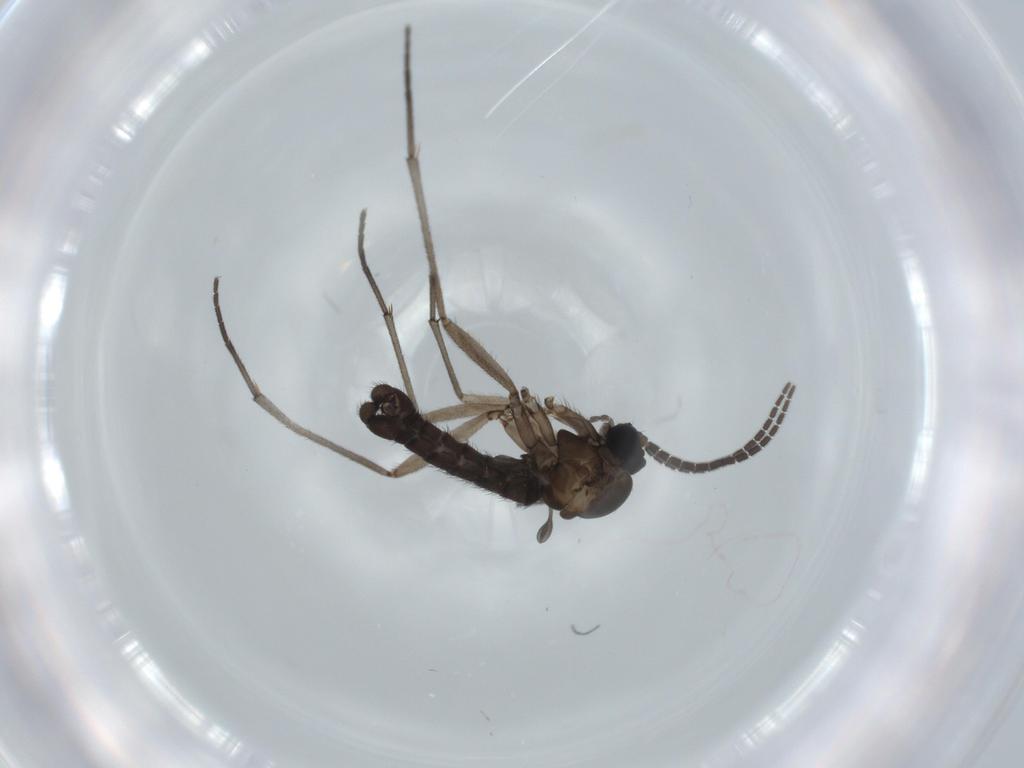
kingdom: Animalia
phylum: Arthropoda
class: Insecta
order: Diptera
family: Sciaridae
